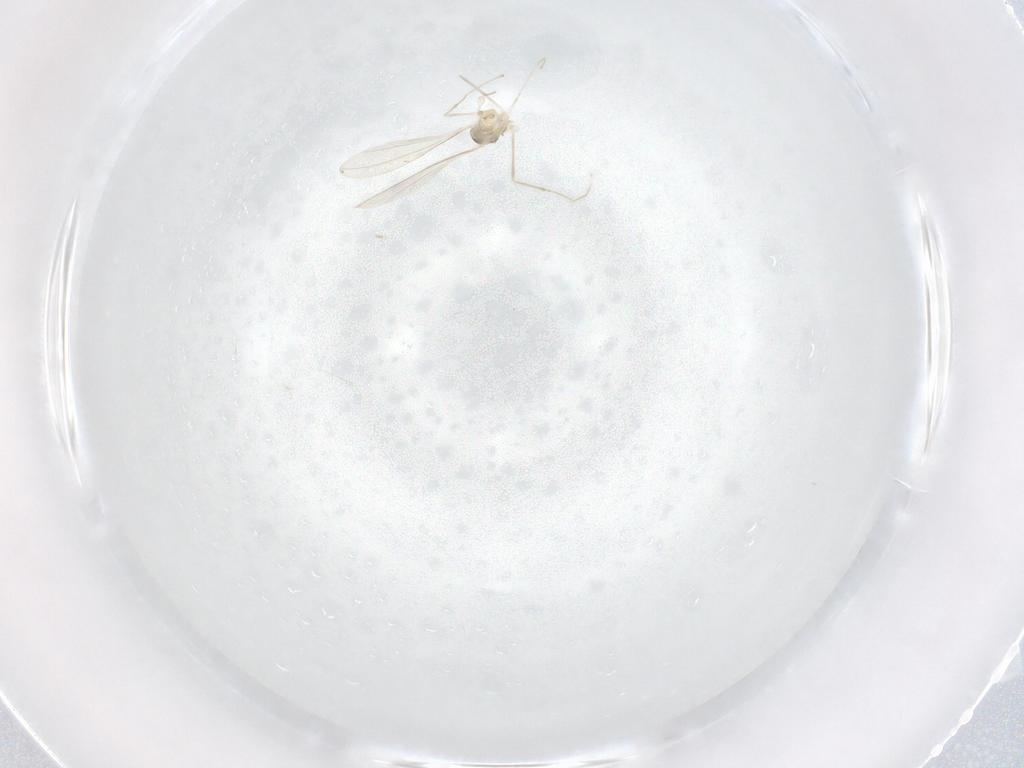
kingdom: Animalia
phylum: Arthropoda
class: Insecta
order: Diptera
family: Cecidomyiidae
